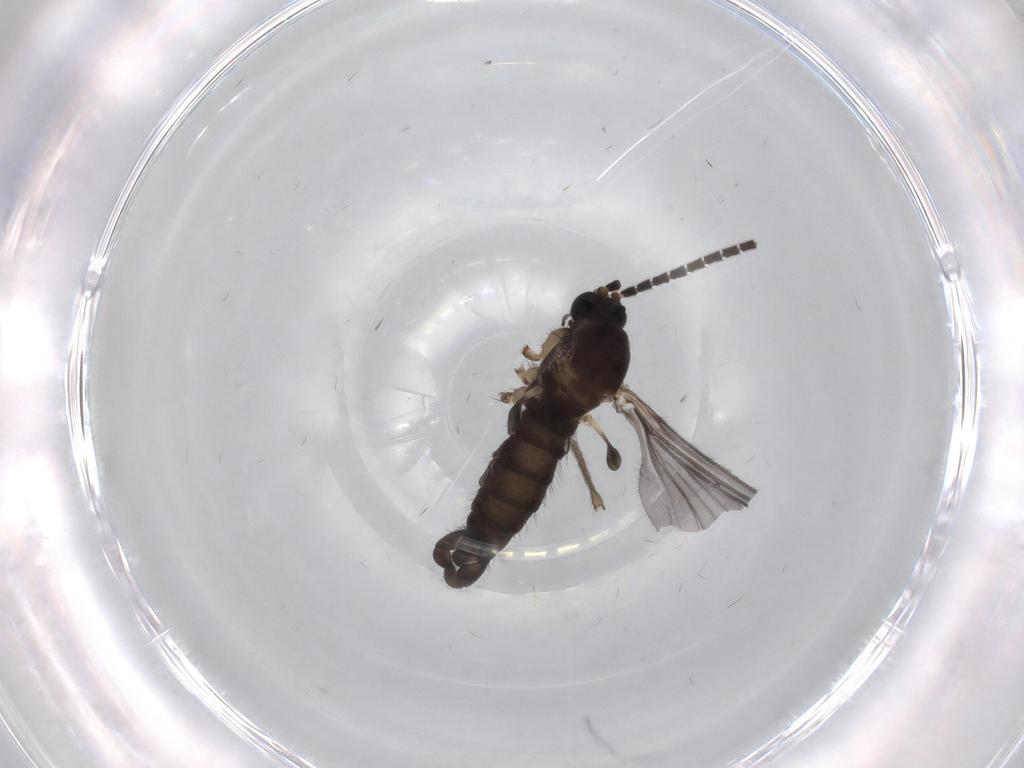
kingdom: Animalia
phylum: Arthropoda
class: Insecta
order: Diptera
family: Sciaridae
